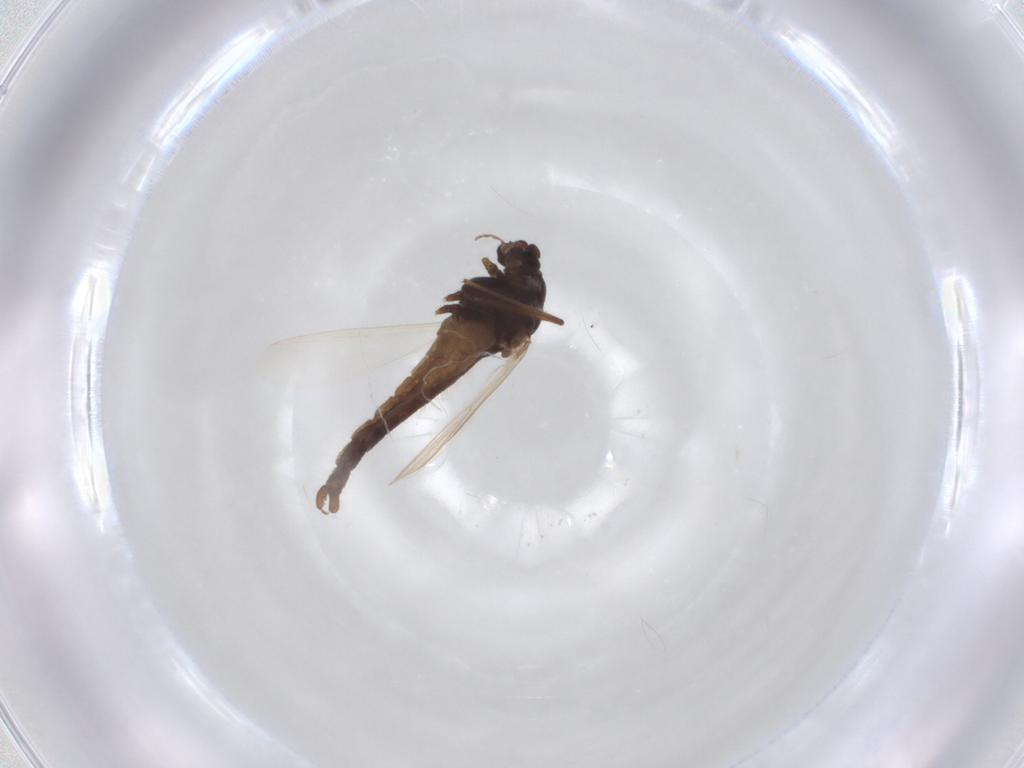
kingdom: Animalia
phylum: Arthropoda
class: Insecta
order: Diptera
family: Chironomidae
